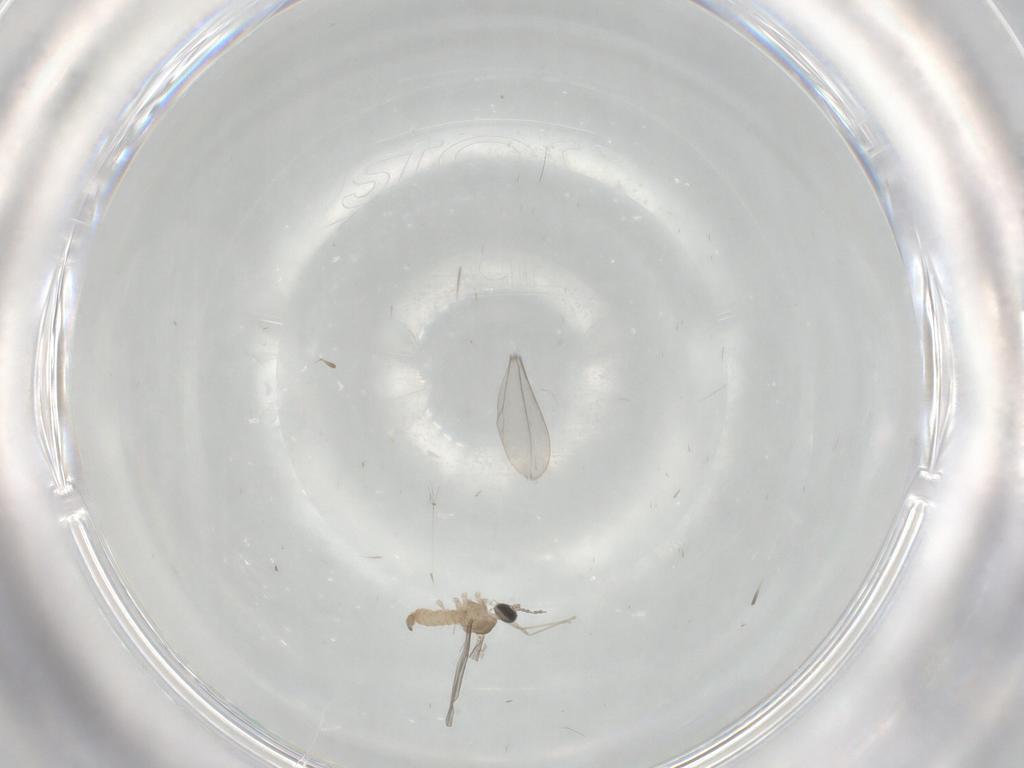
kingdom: Animalia
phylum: Arthropoda
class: Insecta
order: Diptera
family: Cecidomyiidae
